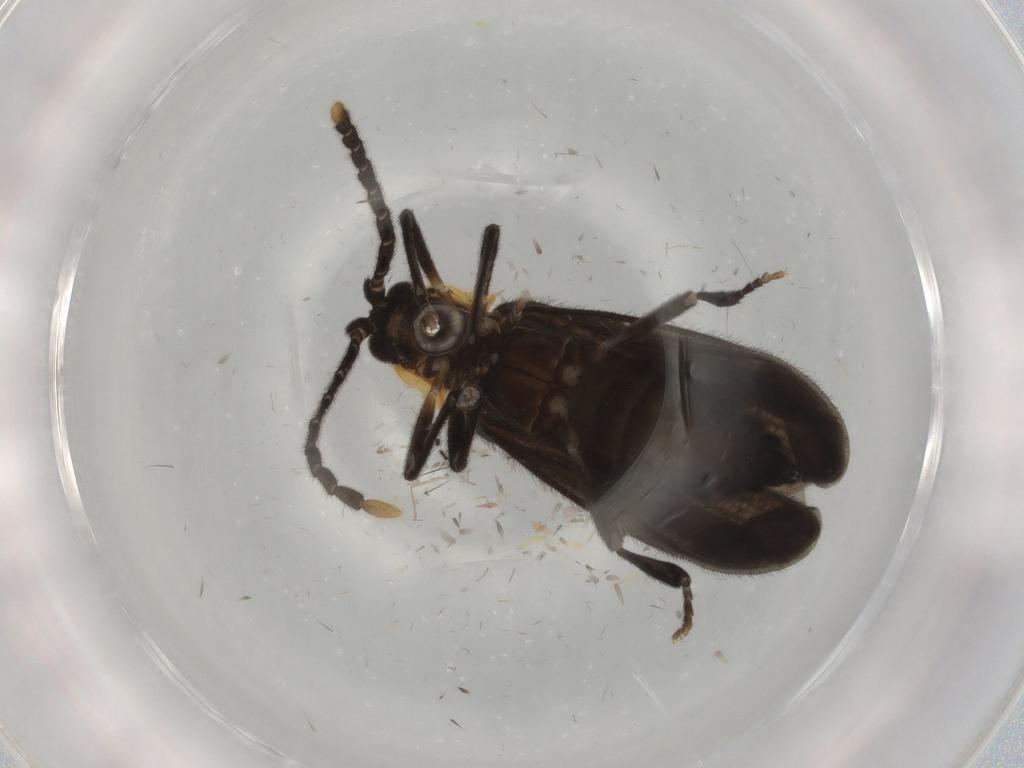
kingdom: Animalia
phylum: Arthropoda
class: Insecta
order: Coleoptera
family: Lycidae
